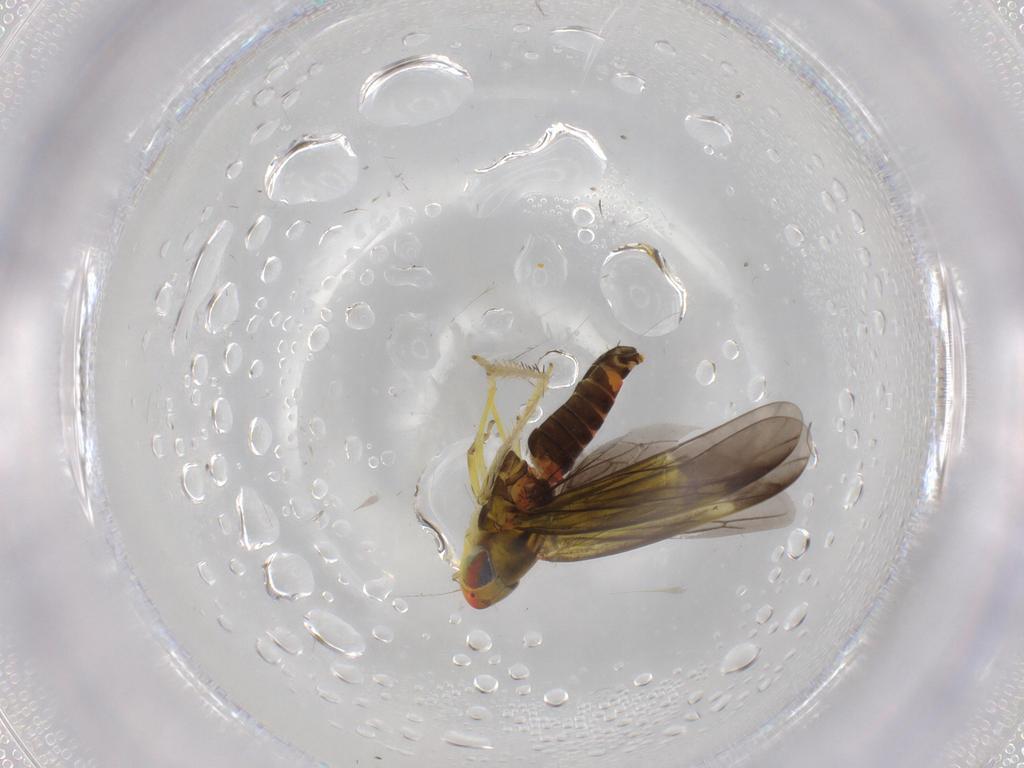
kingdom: Animalia
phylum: Arthropoda
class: Insecta
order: Hemiptera
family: Cicadellidae
